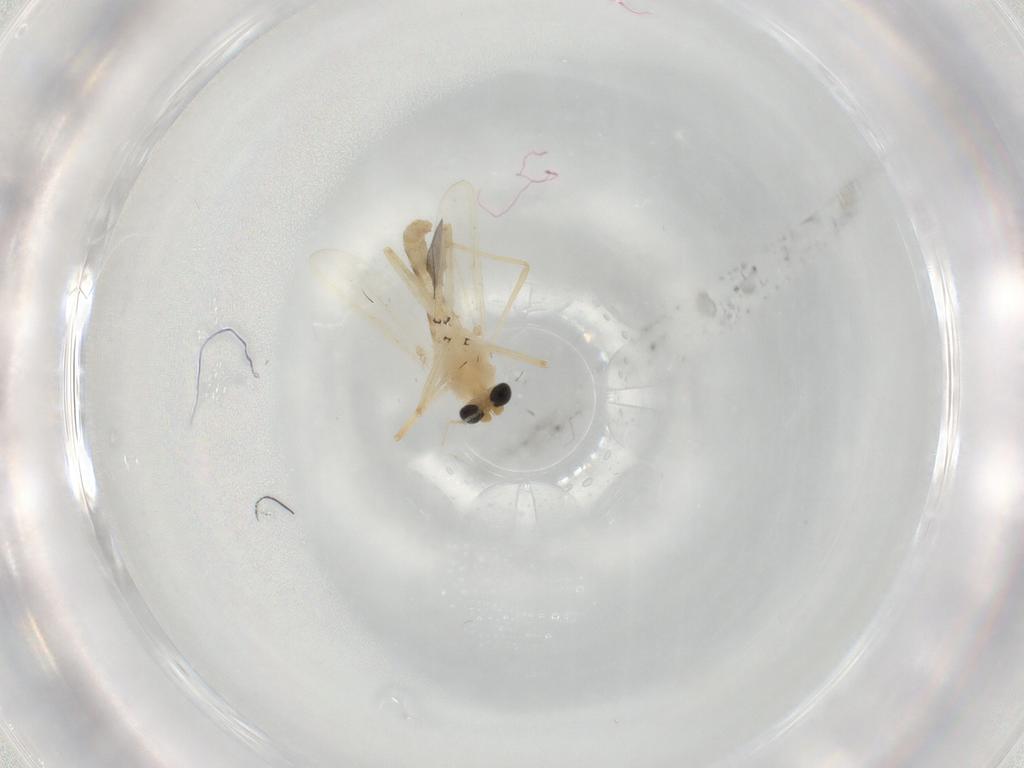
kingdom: Animalia
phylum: Arthropoda
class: Insecta
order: Diptera
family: Chironomidae
